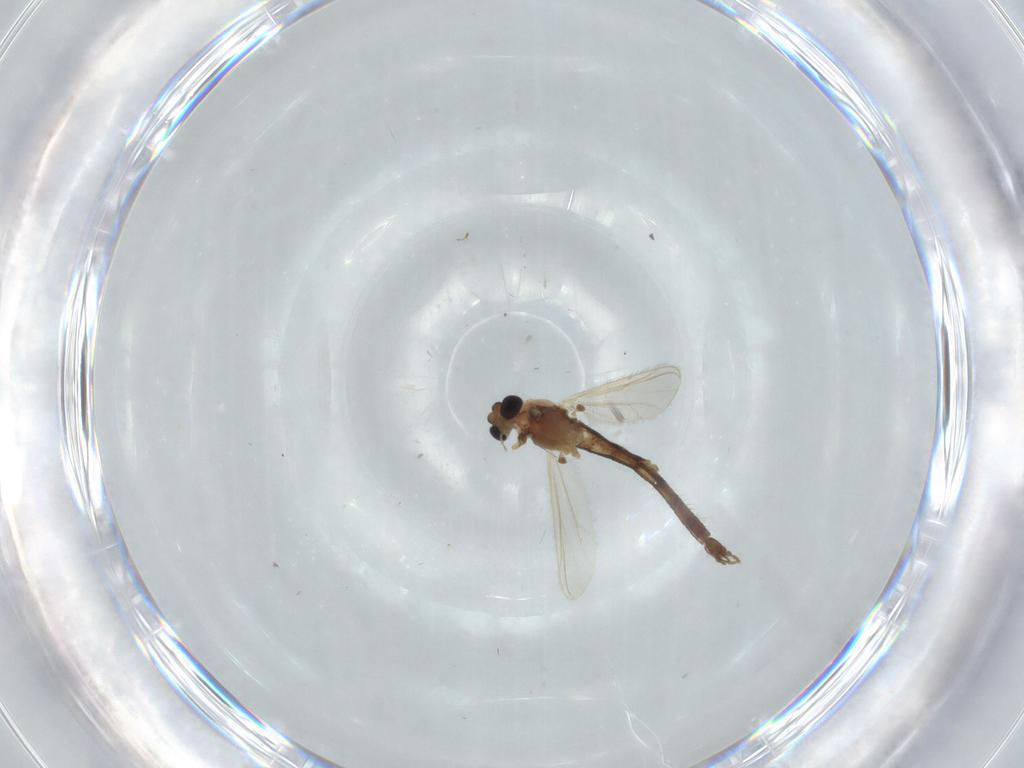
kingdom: Animalia
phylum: Arthropoda
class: Insecta
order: Diptera
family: Chironomidae
